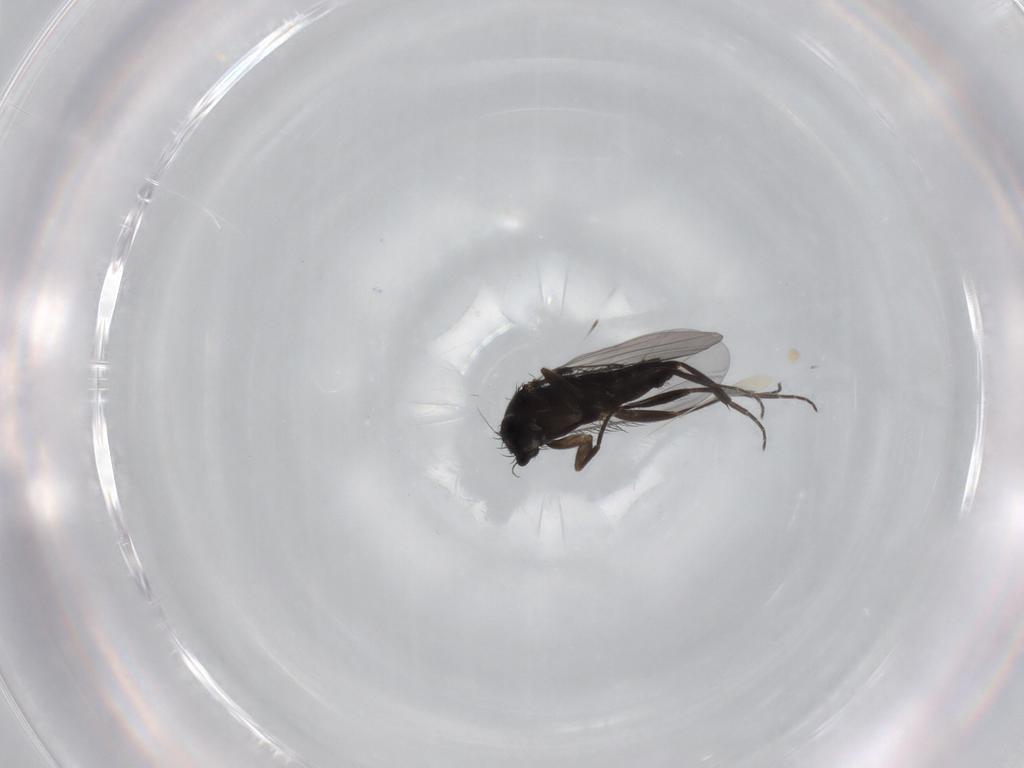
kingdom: Animalia
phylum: Arthropoda
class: Insecta
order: Diptera
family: Phoridae
